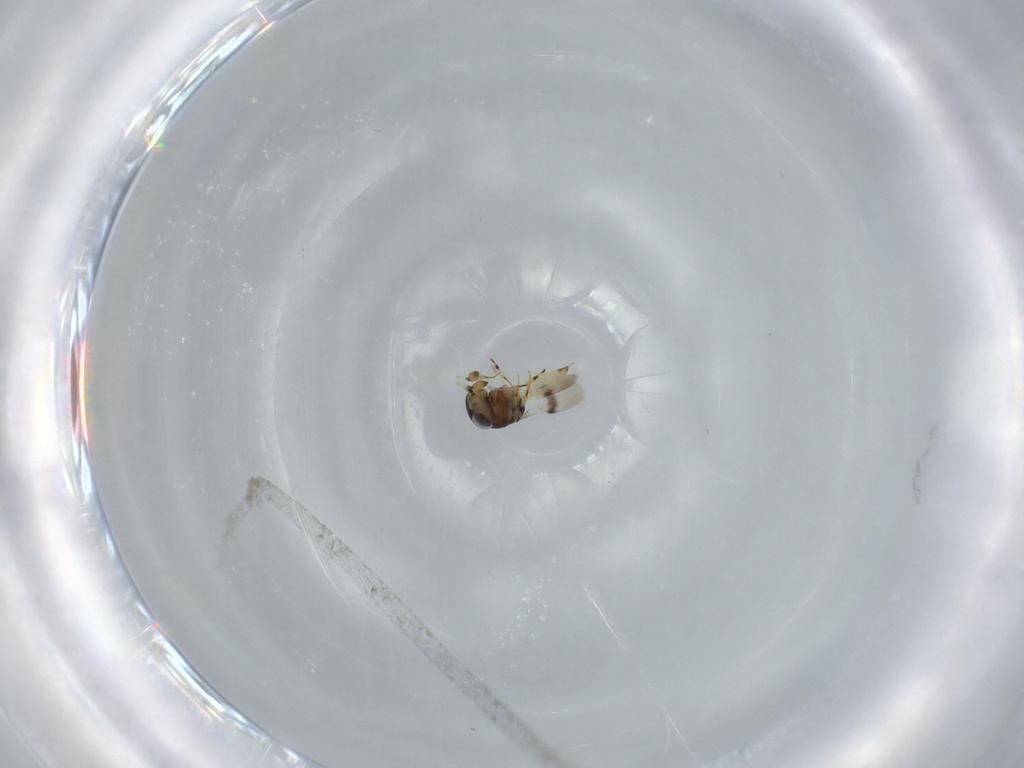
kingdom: Animalia
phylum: Arthropoda
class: Insecta
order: Hymenoptera
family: Scelionidae
